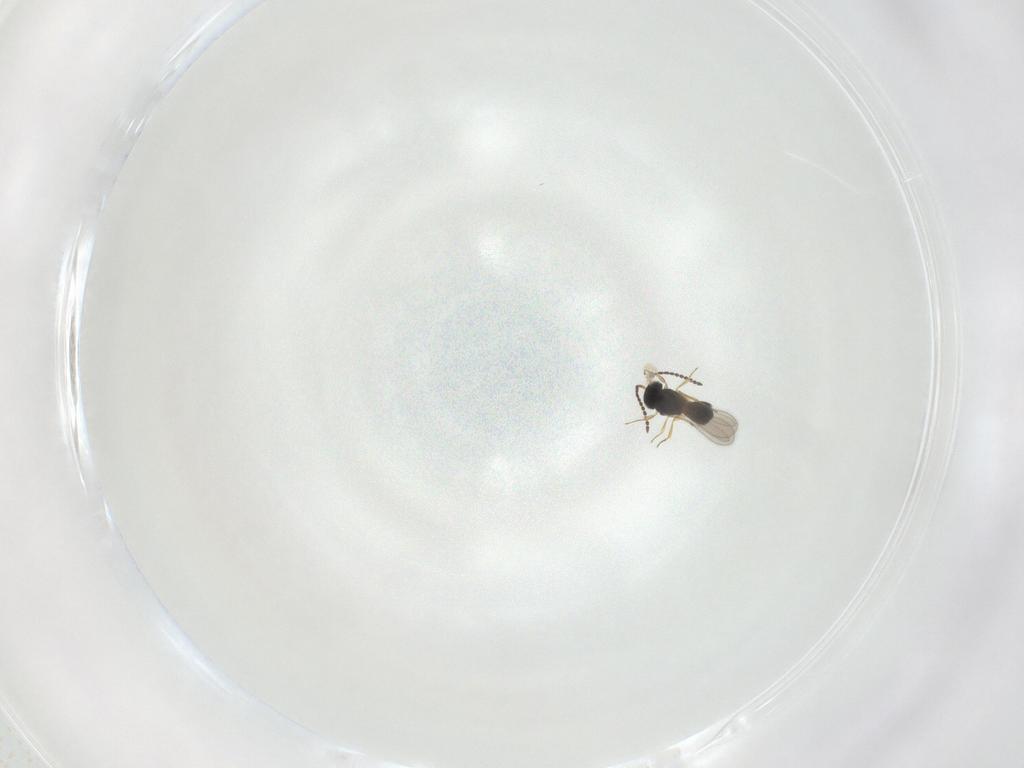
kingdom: Animalia
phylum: Arthropoda
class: Insecta
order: Hymenoptera
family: Scelionidae
